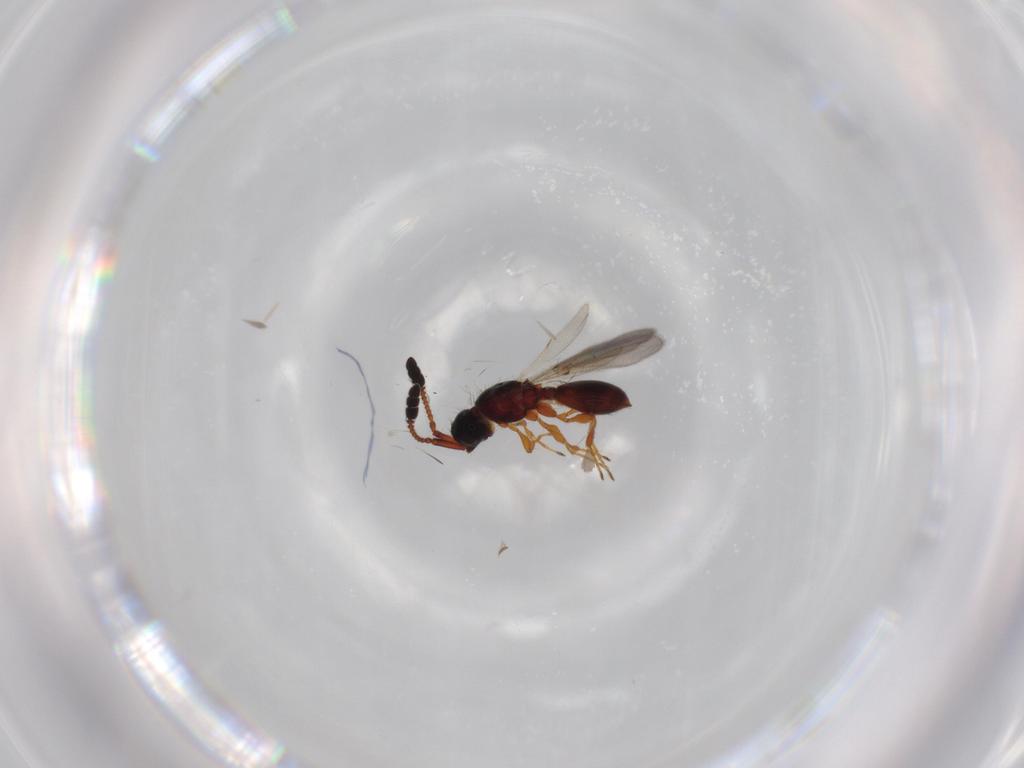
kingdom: Animalia
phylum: Arthropoda
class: Insecta
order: Hymenoptera
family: Diapriidae
